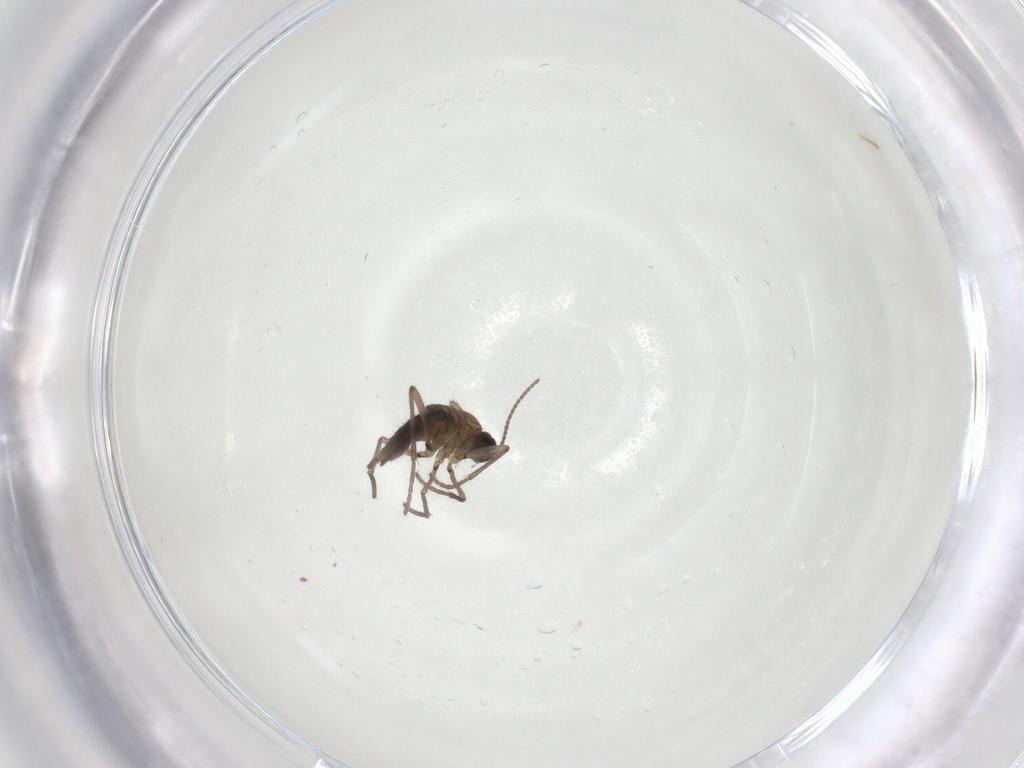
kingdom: Animalia
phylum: Arthropoda
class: Insecta
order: Diptera
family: Sciaridae
